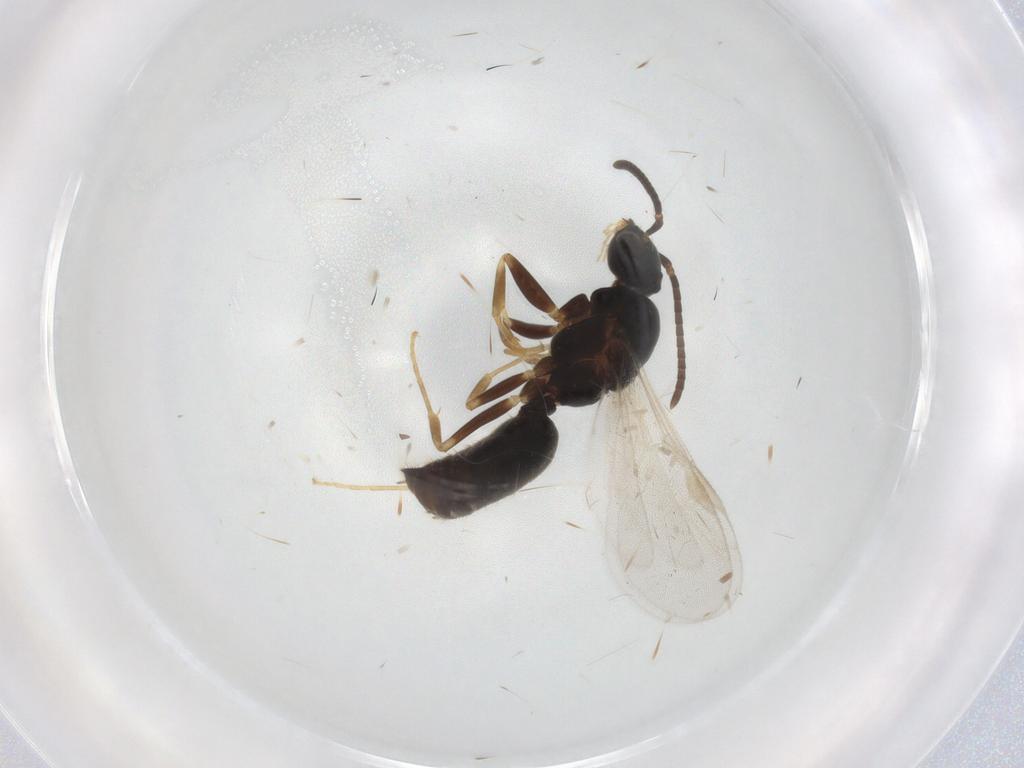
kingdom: Animalia
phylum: Arthropoda
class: Insecta
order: Hymenoptera
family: Formicidae
